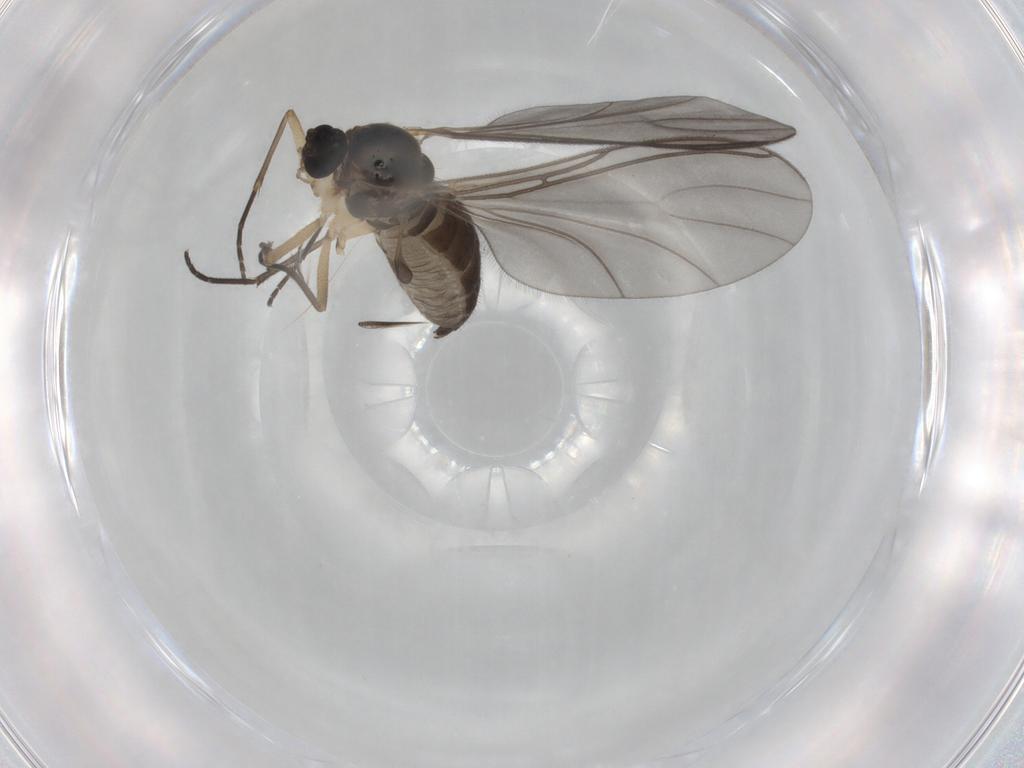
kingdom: Animalia
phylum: Arthropoda
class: Insecta
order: Diptera
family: Sciaridae
